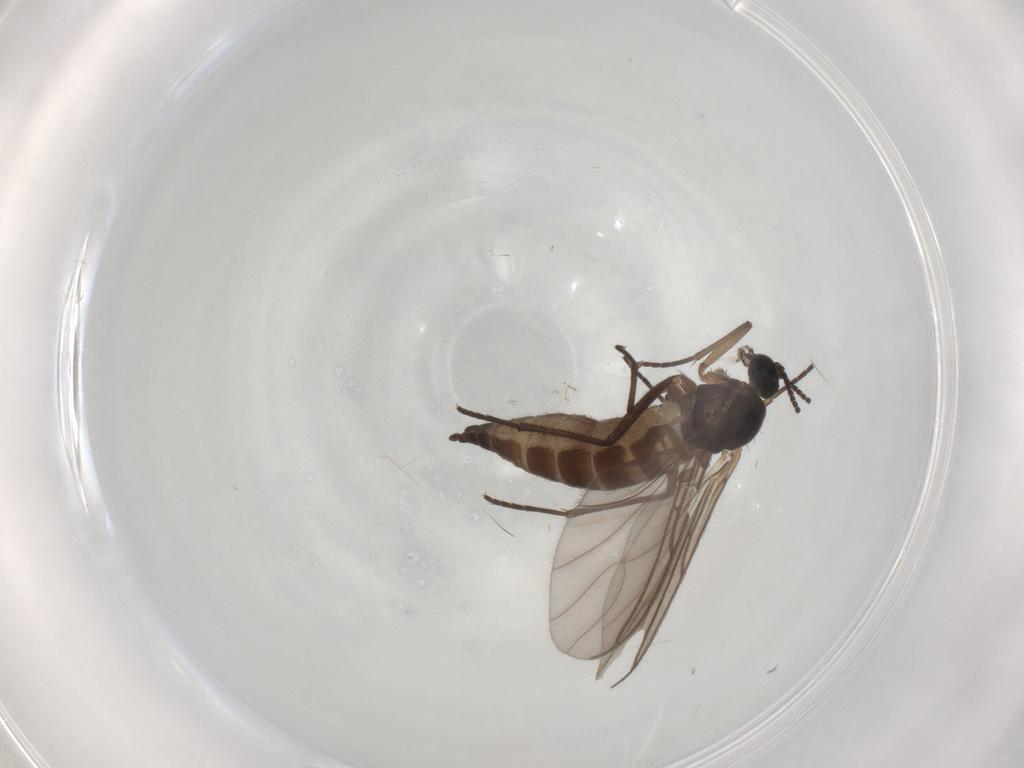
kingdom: Animalia
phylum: Arthropoda
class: Insecta
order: Diptera
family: Sciaridae
